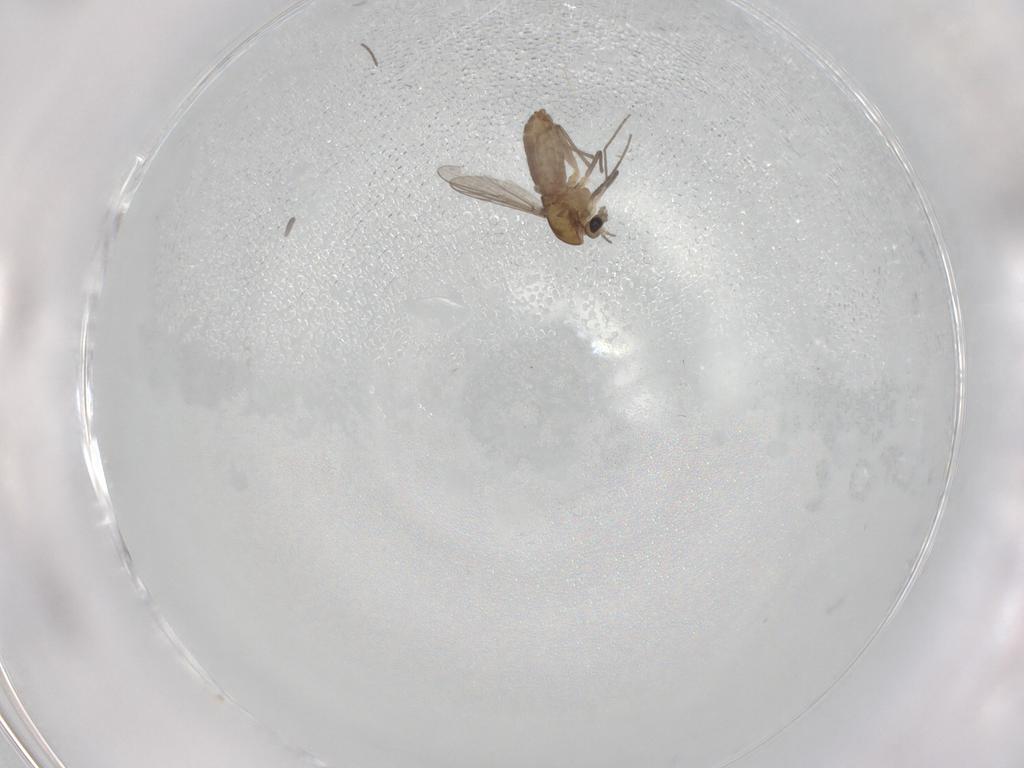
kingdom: Animalia
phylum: Arthropoda
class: Insecta
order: Diptera
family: Chironomidae
